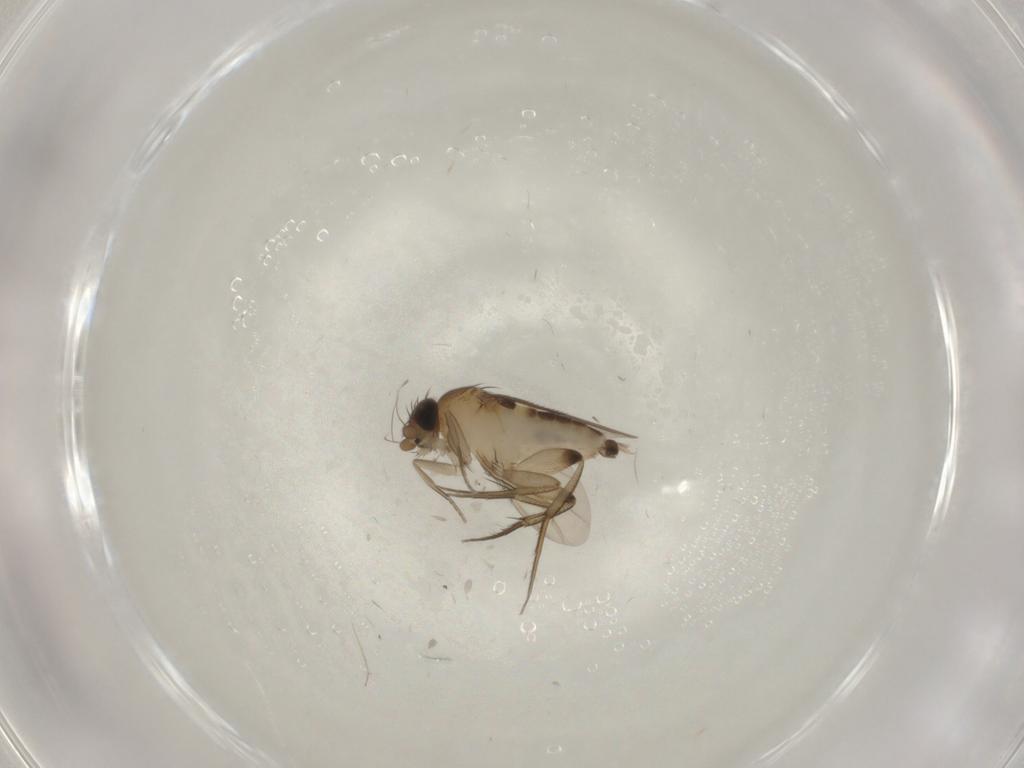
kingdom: Animalia
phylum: Arthropoda
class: Insecta
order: Diptera
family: Phoridae
